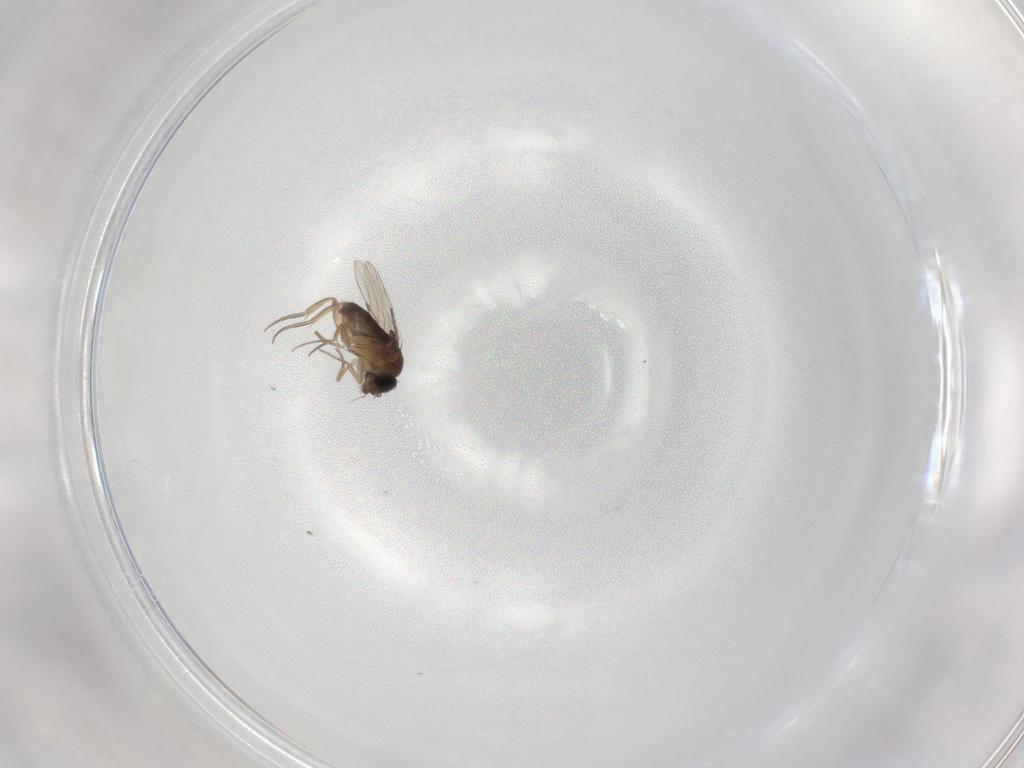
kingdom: Animalia
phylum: Arthropoda
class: Insecta
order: Diptera
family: Phoridae
